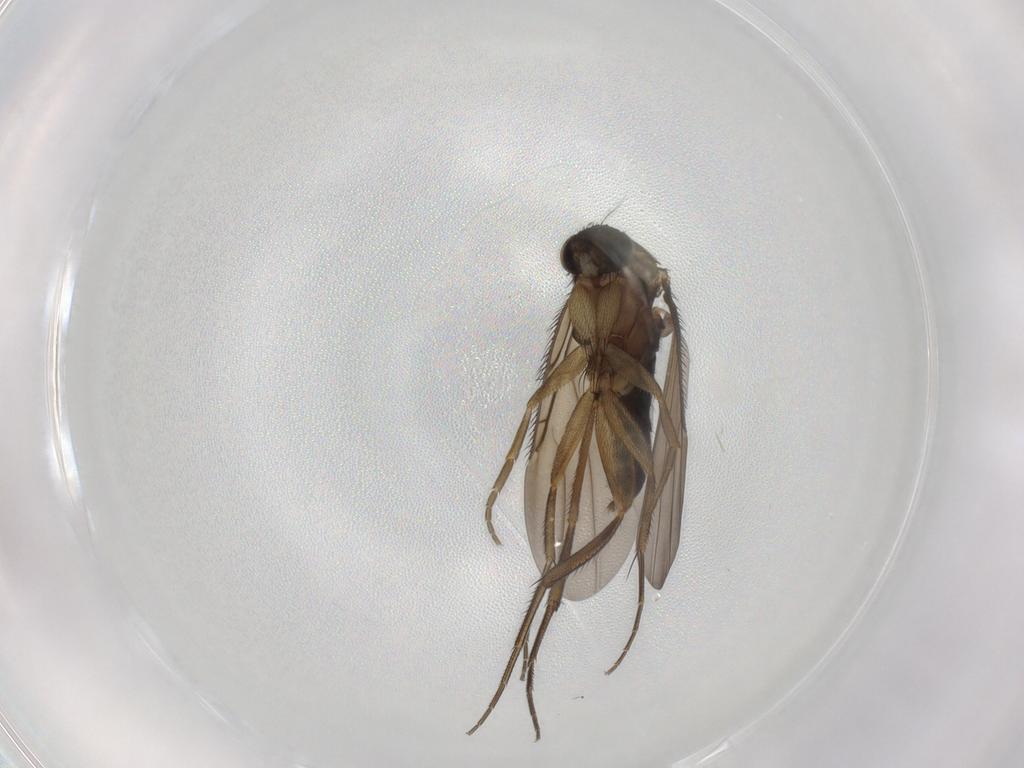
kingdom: Animalia
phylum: Arthropoda
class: Insecta
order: Diptera
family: Phoridae
